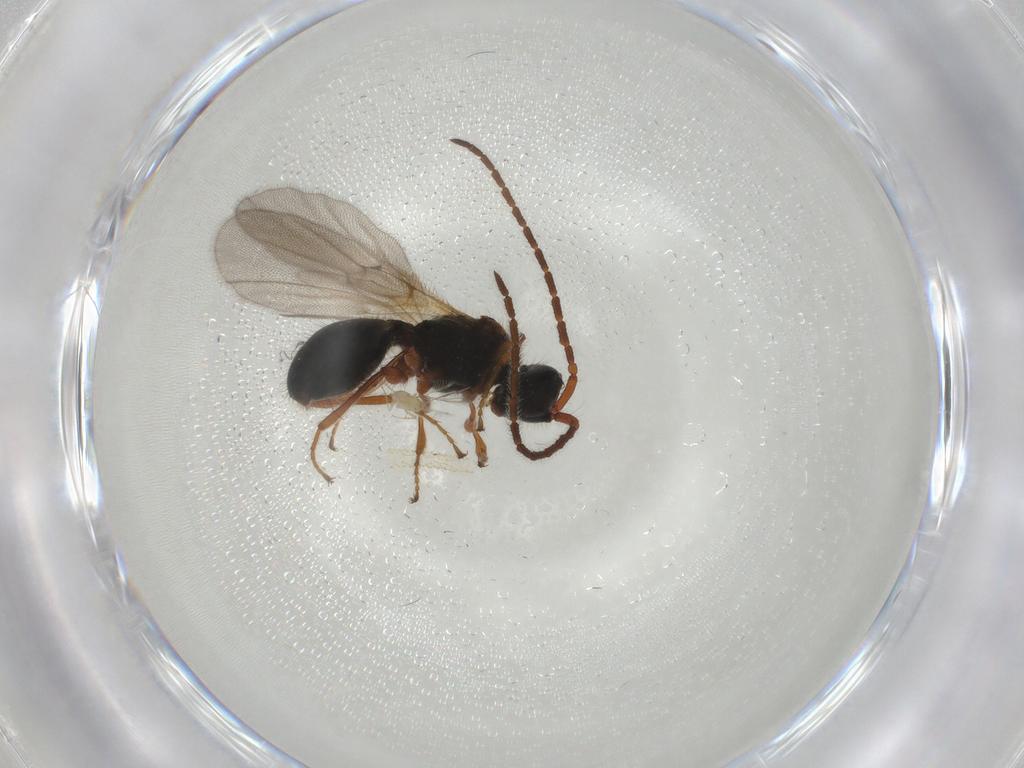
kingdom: Animalia
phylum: Arthropoda
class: Insecta
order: Hymenoptera
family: Diapriidae
